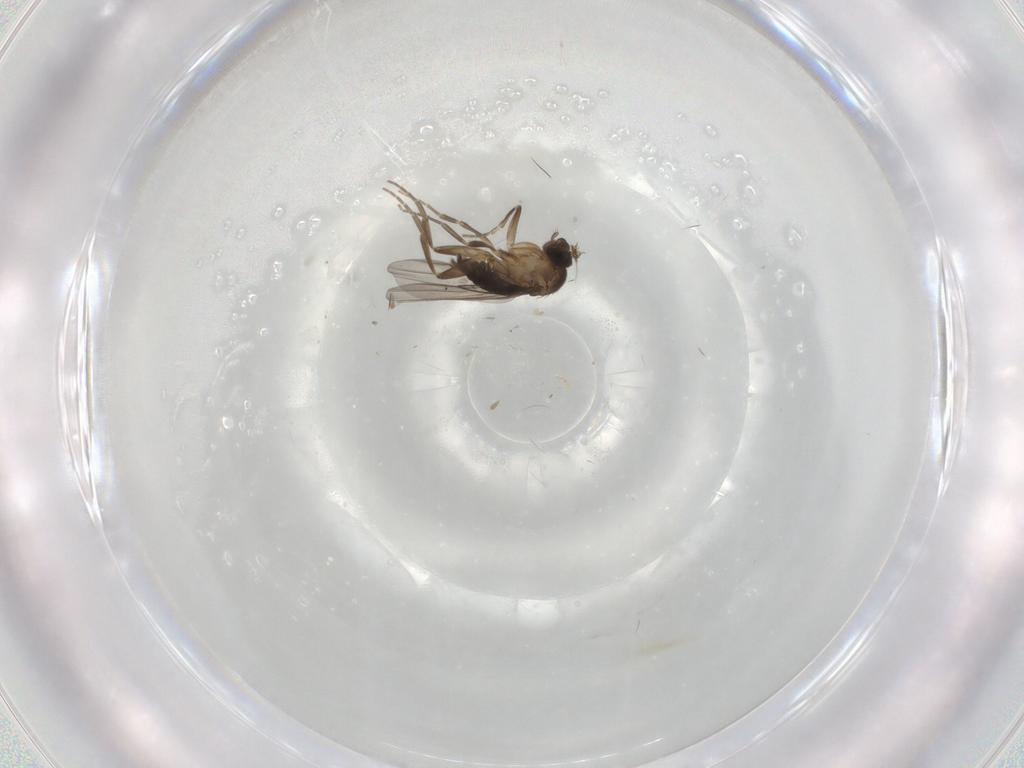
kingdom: Animalia
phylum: Arthropoda
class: Insecta
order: Diptera
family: Phoridae
